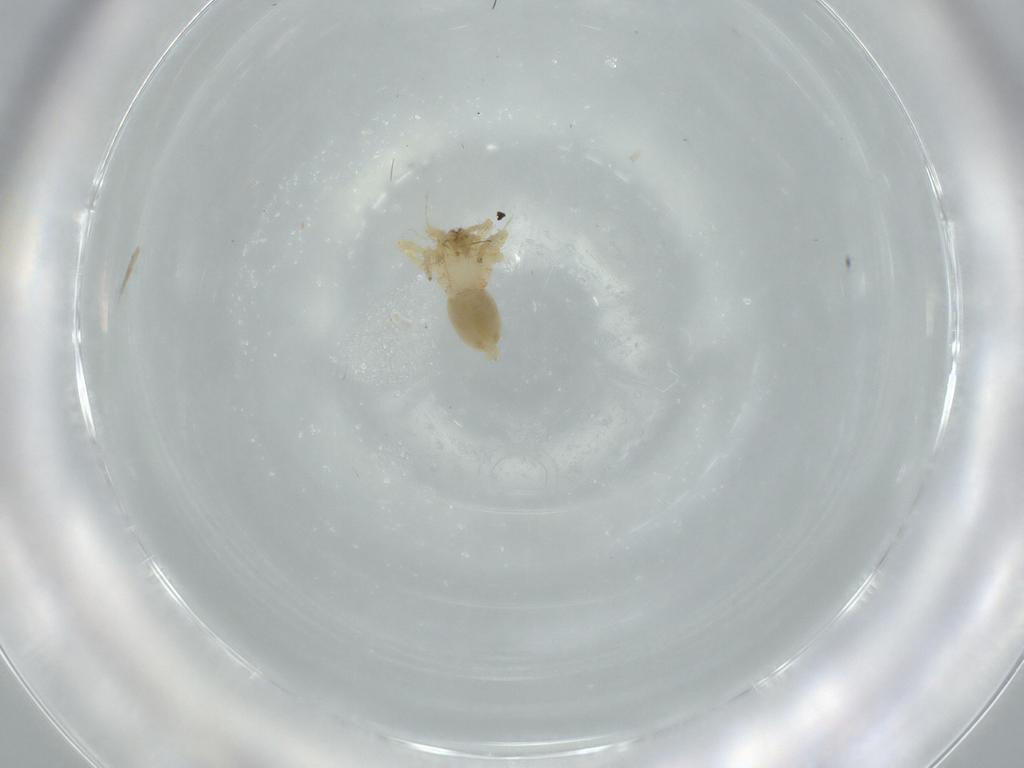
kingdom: Animalia
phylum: Arthropoda
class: Arachnida
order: Araneae
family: Oonopidae
